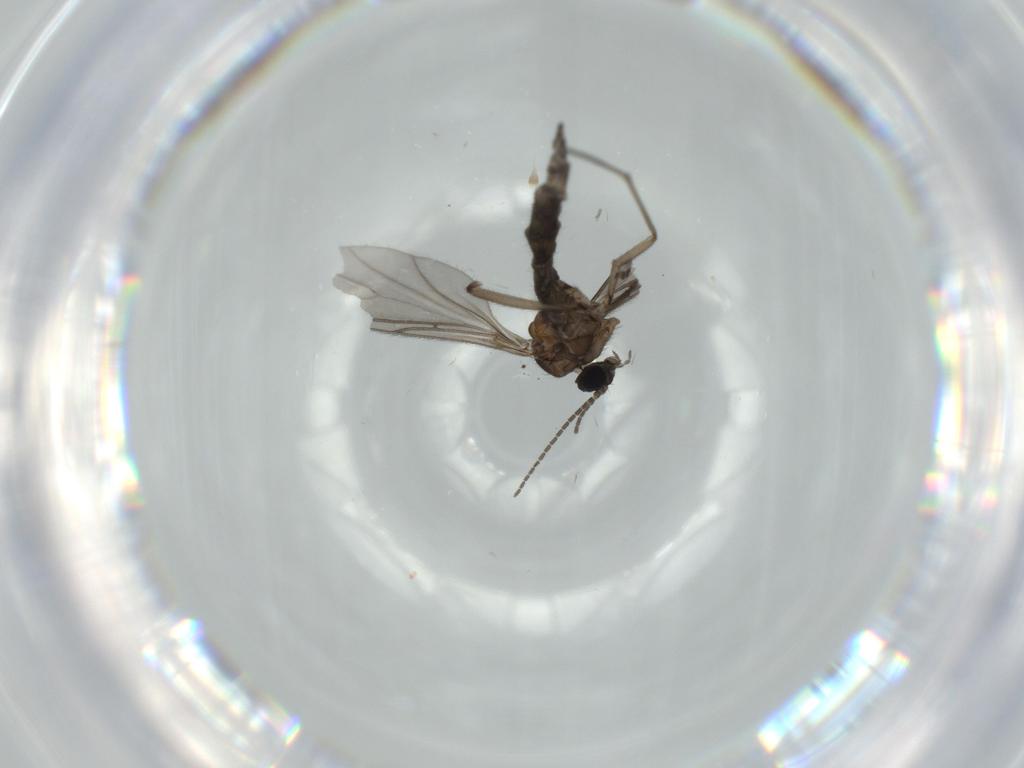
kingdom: Animalia
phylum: Arthropoda
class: Insecta
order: Diptera
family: Sciaridae
